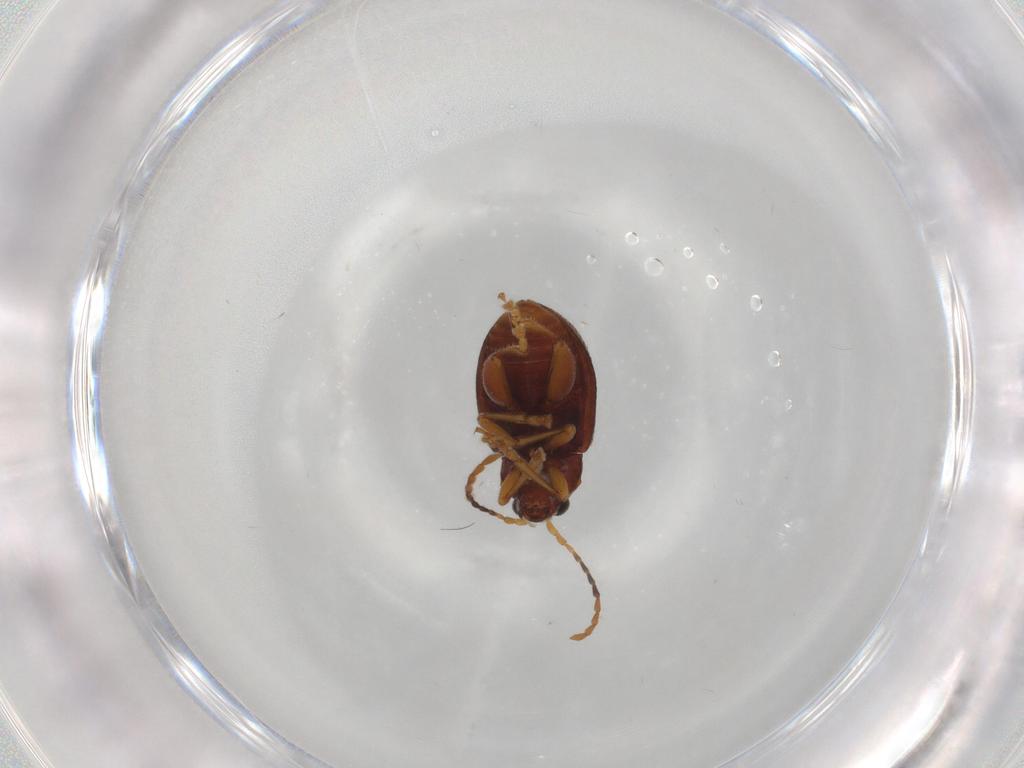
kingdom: Animalia
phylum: Arthropoda
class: Insecta
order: Coleoptera
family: Chrysomelidae
